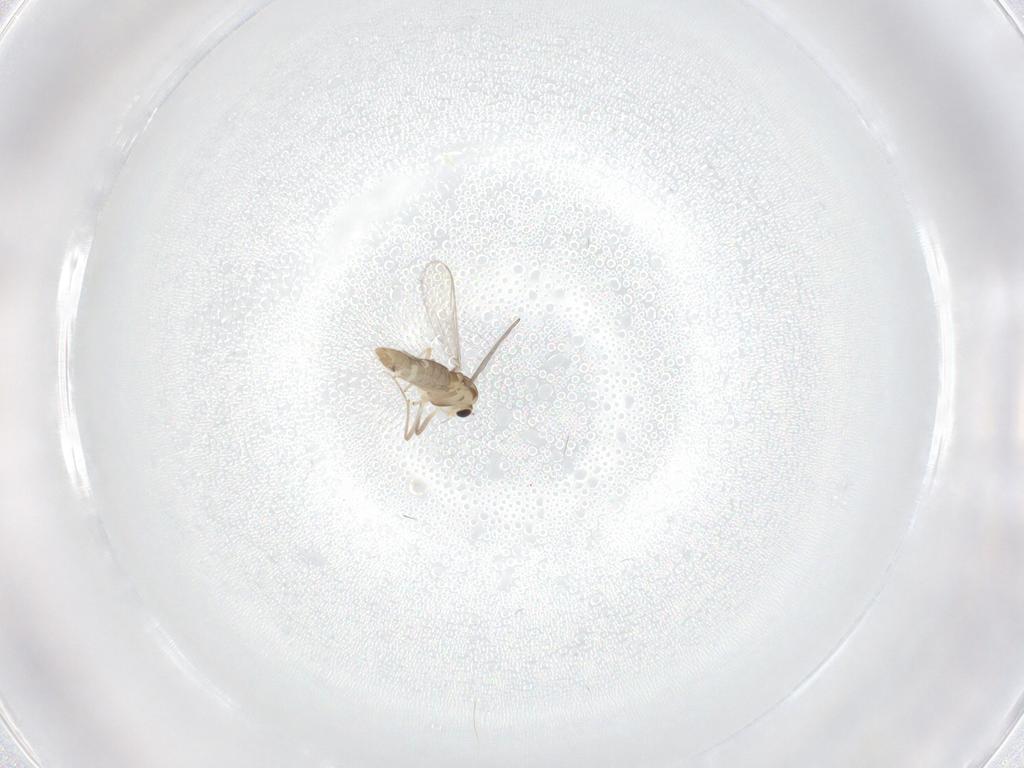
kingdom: Animalia
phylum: Arthropoda
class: Insecta
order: Diptera
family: Chironomidae
